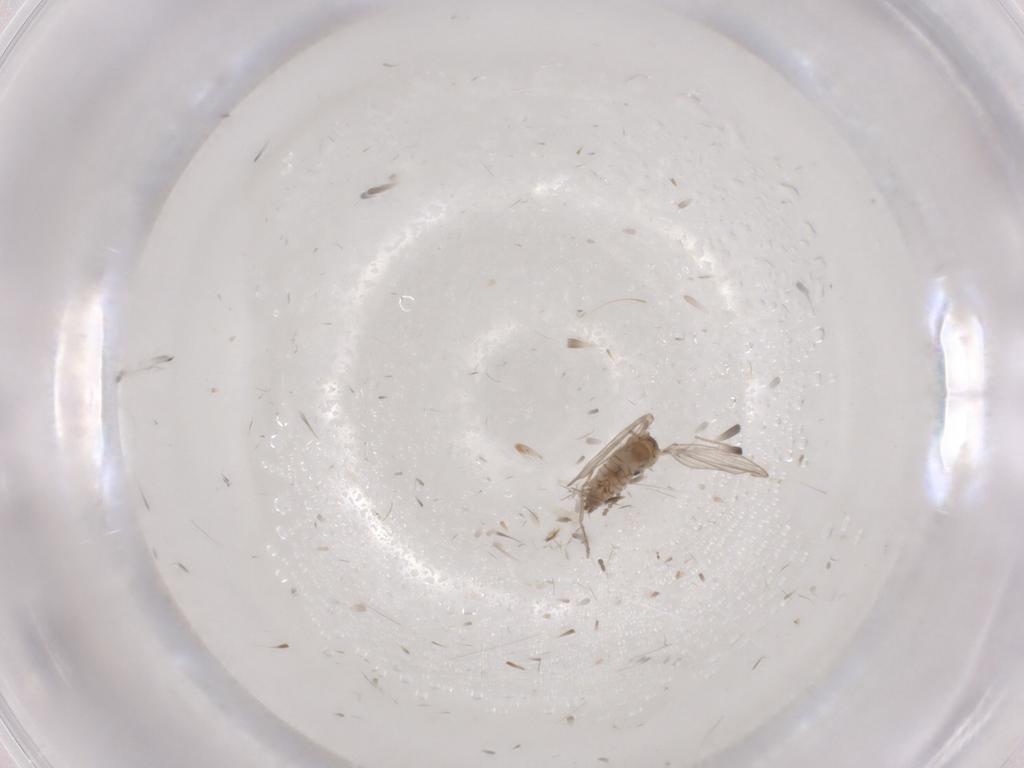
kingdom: Animalia
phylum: Arthropoda
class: Insecta
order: Diptera
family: Psychodidae
